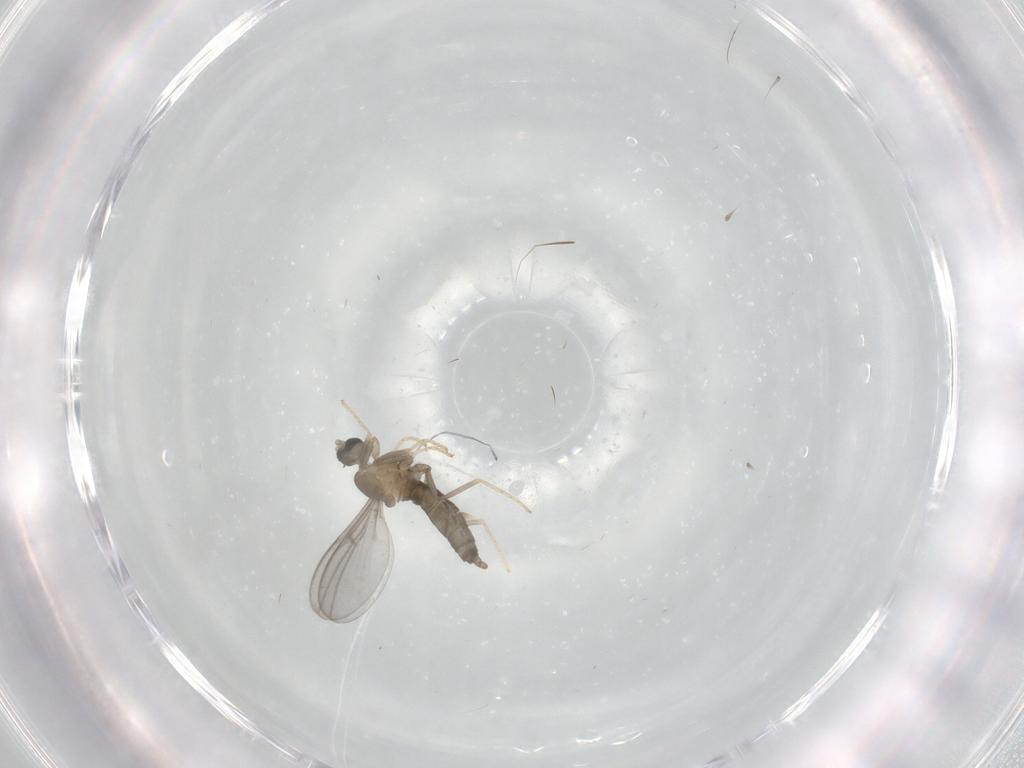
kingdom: Animalia
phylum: Arthropoda
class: Insecta
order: Diptera
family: Cecidomyiidae
